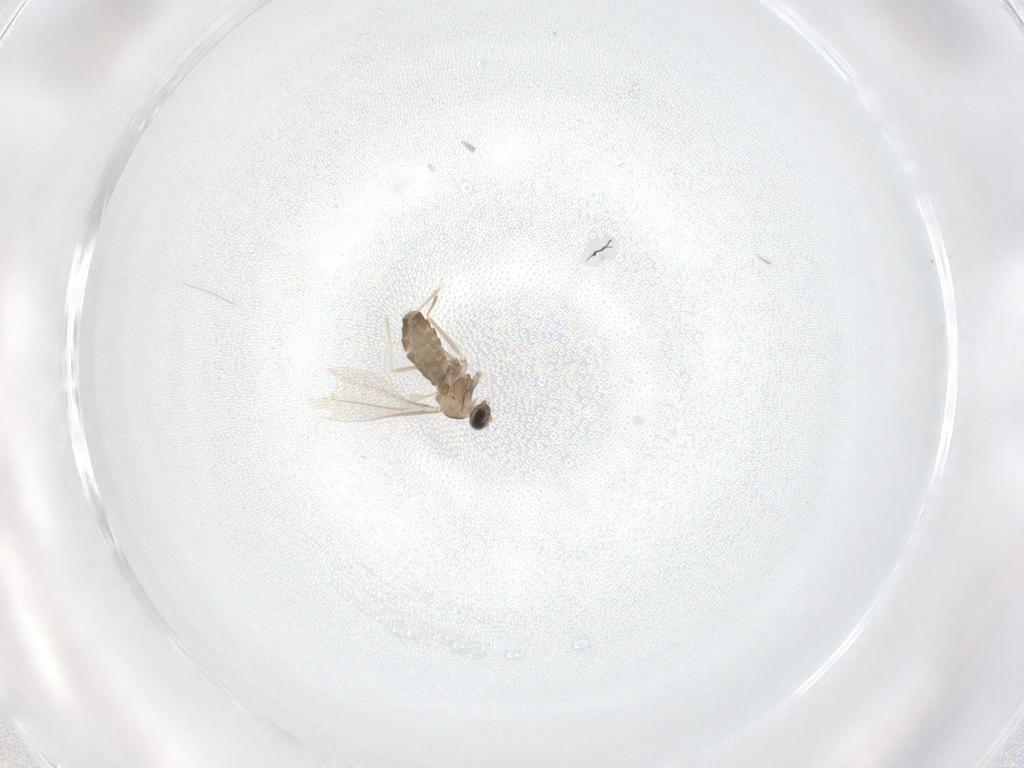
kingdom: Animalia
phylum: Arthropoda
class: Insecta
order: Diptera
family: Cecidomyiidae
